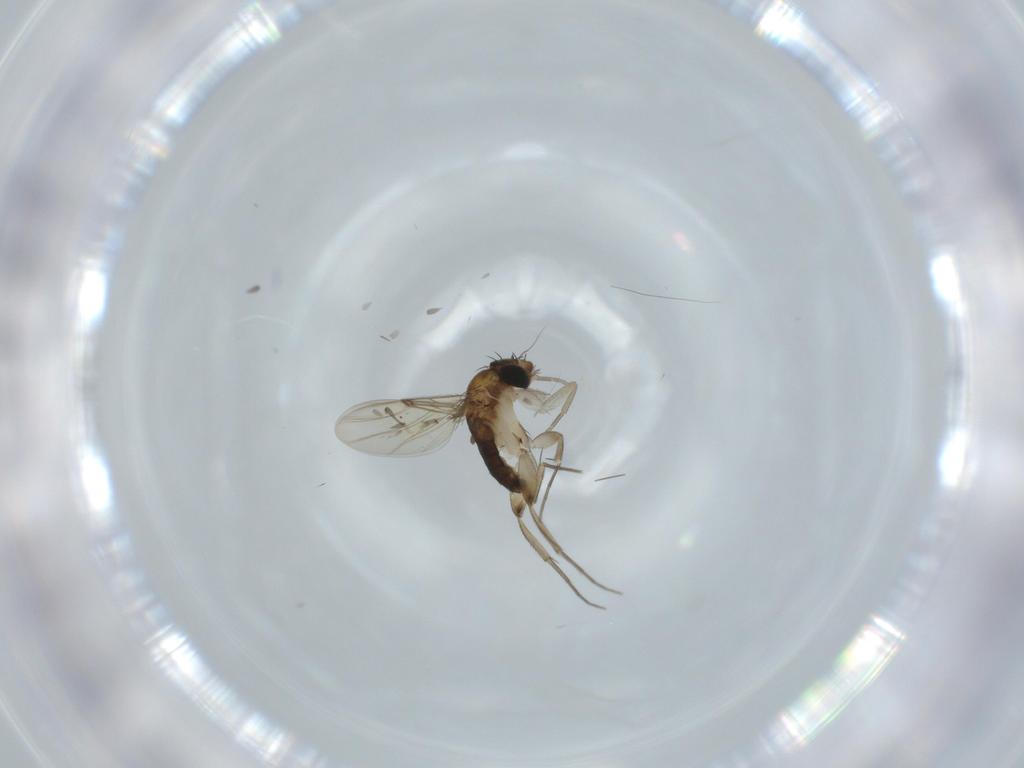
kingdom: Animalia
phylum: Arthropoda
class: Insecta
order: Diptera
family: Phoridae
